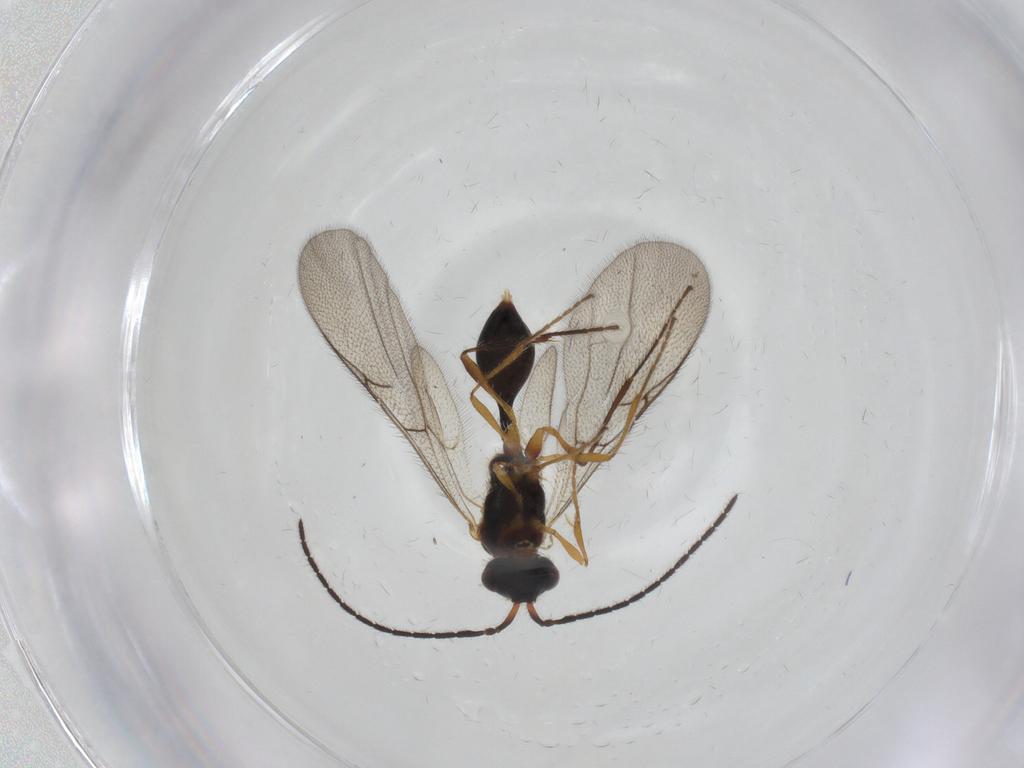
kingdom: Animalia
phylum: Arthropoda
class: Insecta
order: Hymenoptera
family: Diapriidae
